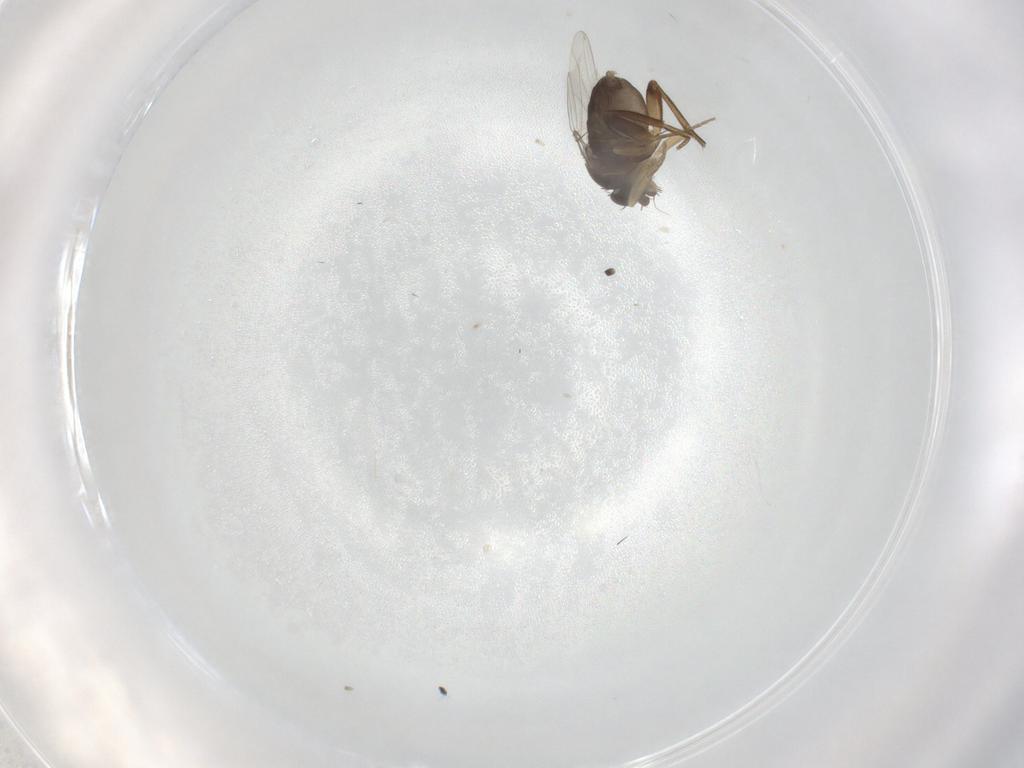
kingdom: Animalia
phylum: Arthropoda
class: Insecta
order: Diptera
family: Phoridae
